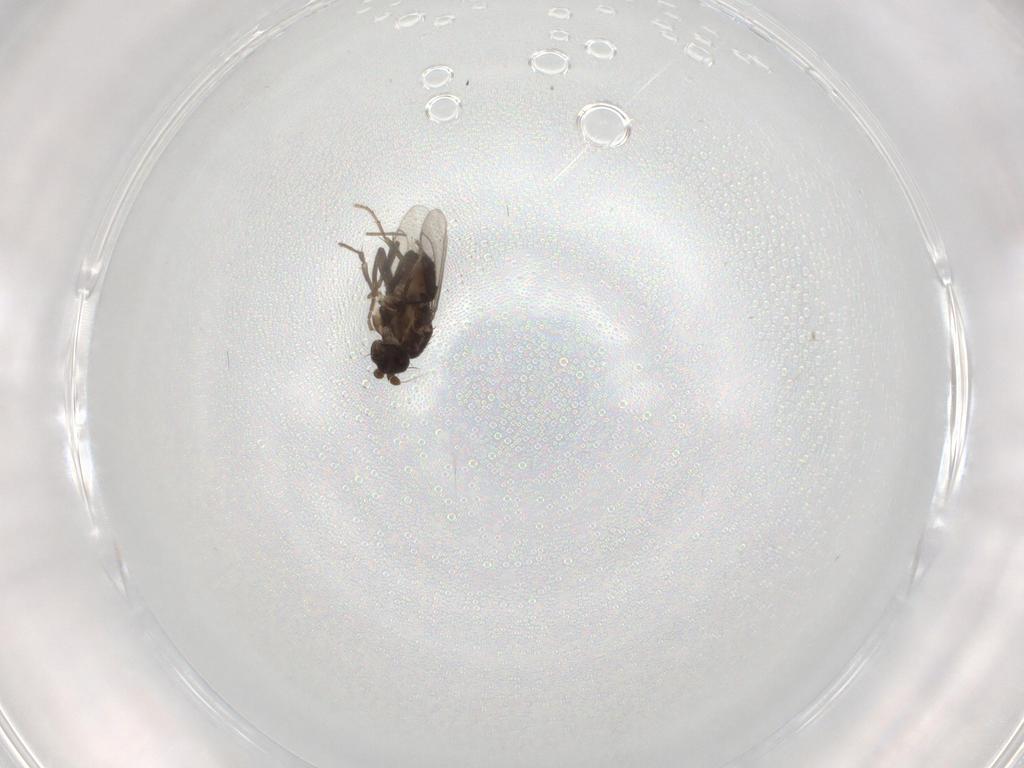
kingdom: Animalia
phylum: Arthropoda
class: Insecta
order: Diptera
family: Sphaeroceridae
